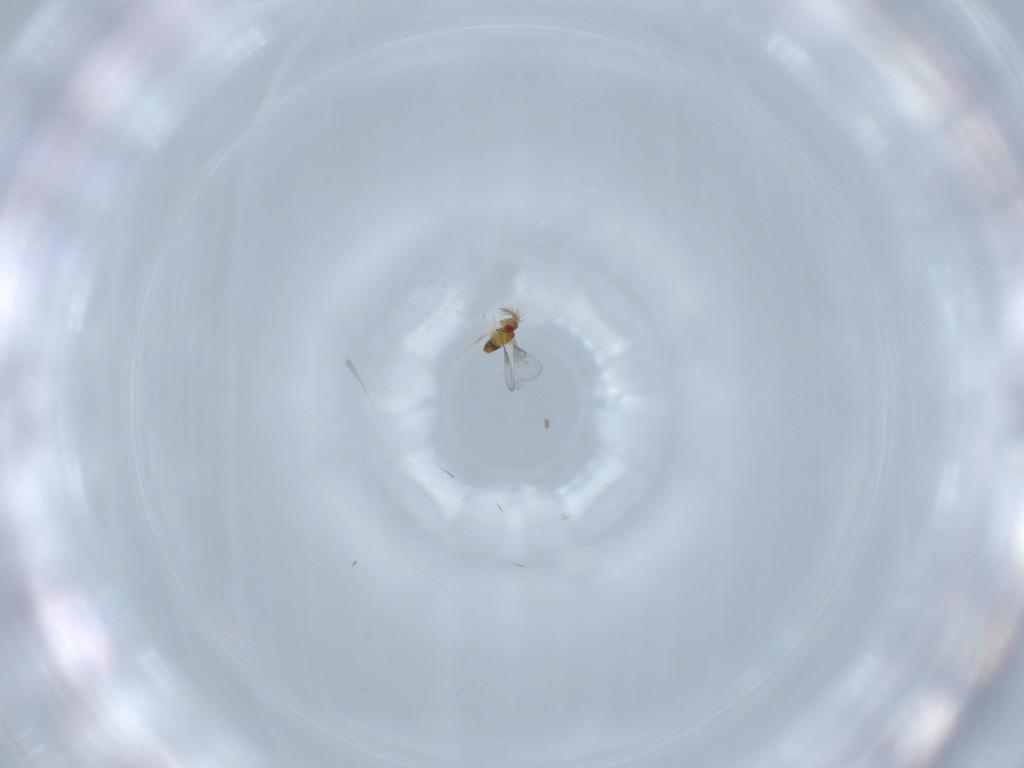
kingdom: Animalia
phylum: Arthropoda
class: Insecta
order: Hymenoptera
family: Trichogrammatidae
